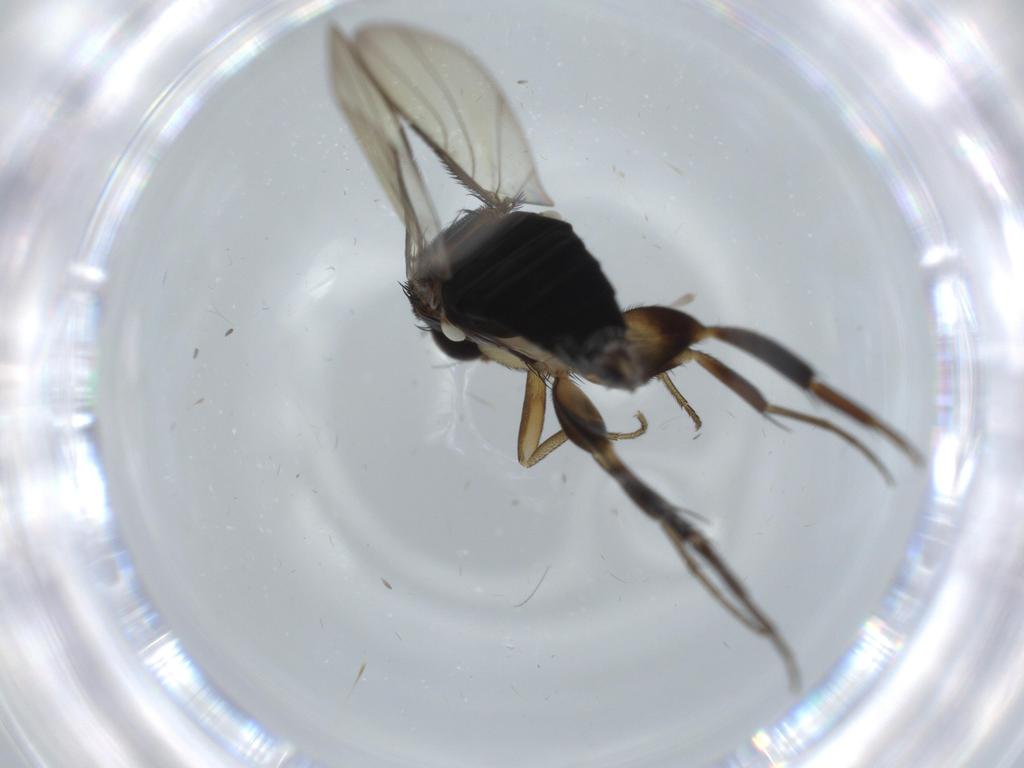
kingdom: Animalia
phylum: Arthropoda
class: Insecta
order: Diptera
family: Phoridae
